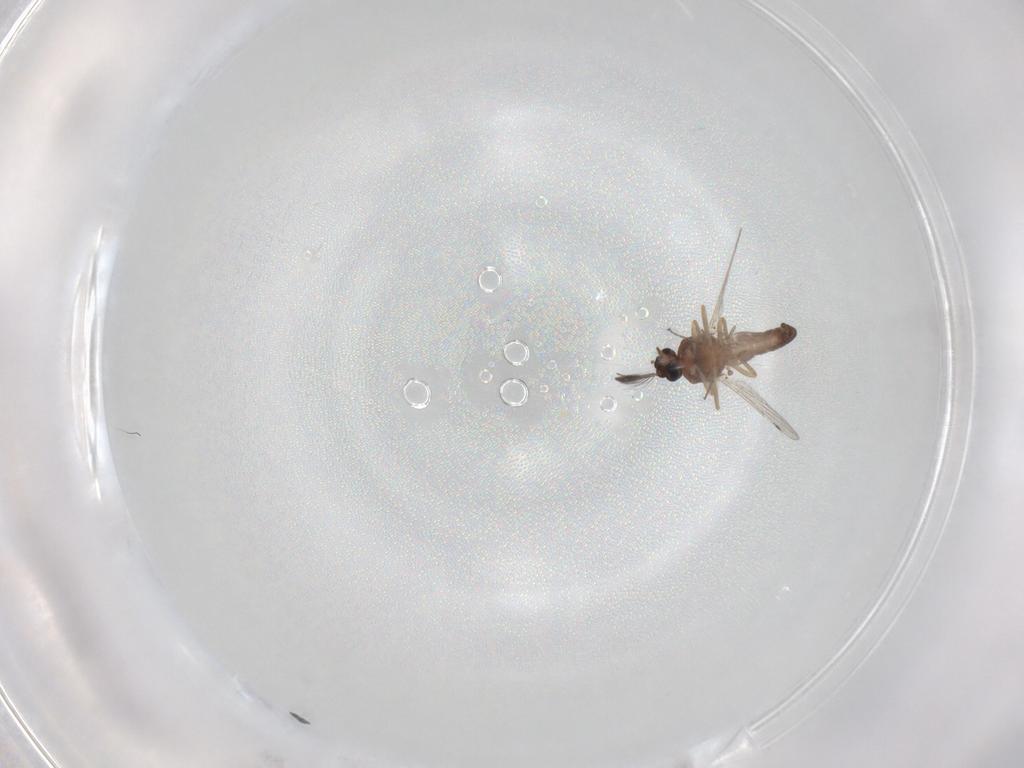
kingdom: Animalia
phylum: Arthropoda
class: Insecta
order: Diptera
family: Ceratopogonidae
